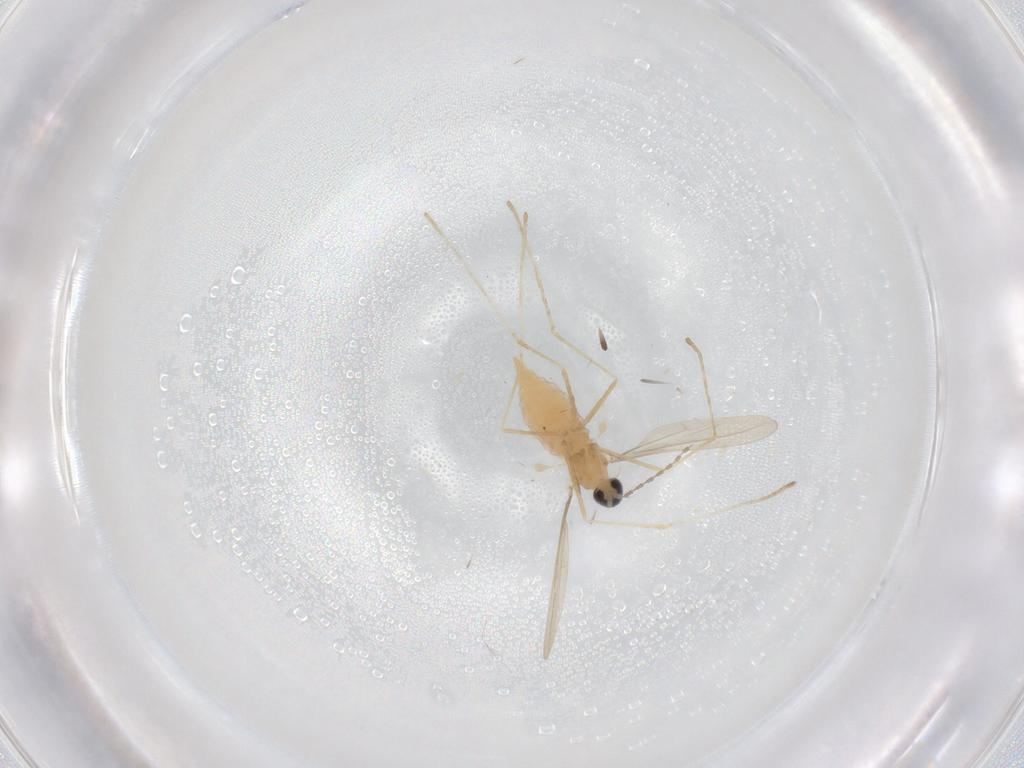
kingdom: Animalia
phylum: Arthropoda
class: Insecta
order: Diptera
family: Cecidomyiidae
